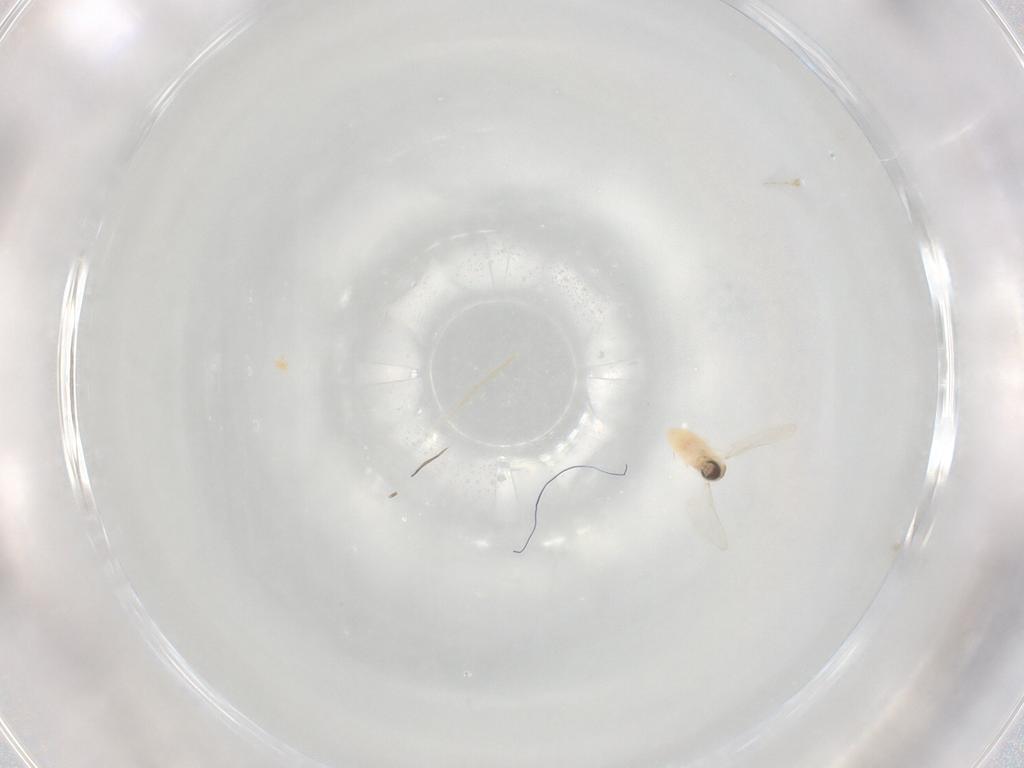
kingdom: Animalia
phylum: Arthropoda
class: Insecta
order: Diptera
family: Cecidomyiidae
